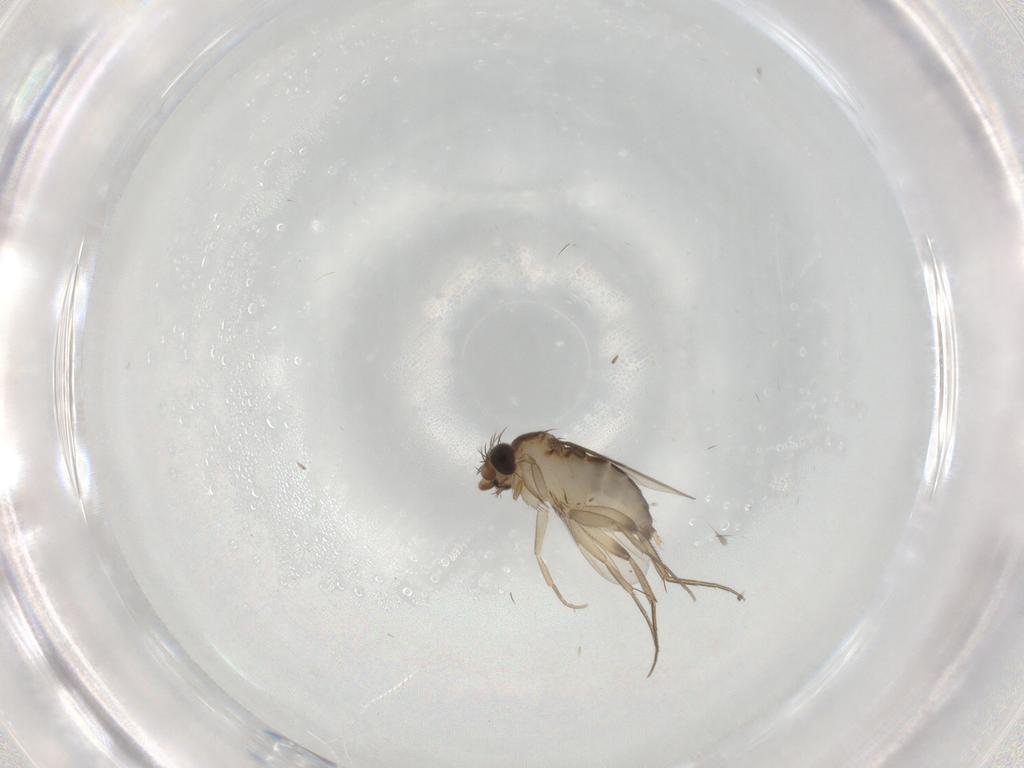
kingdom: Animalia
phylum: Arthropoda
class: Insecta
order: Diptera
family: Phoridae
